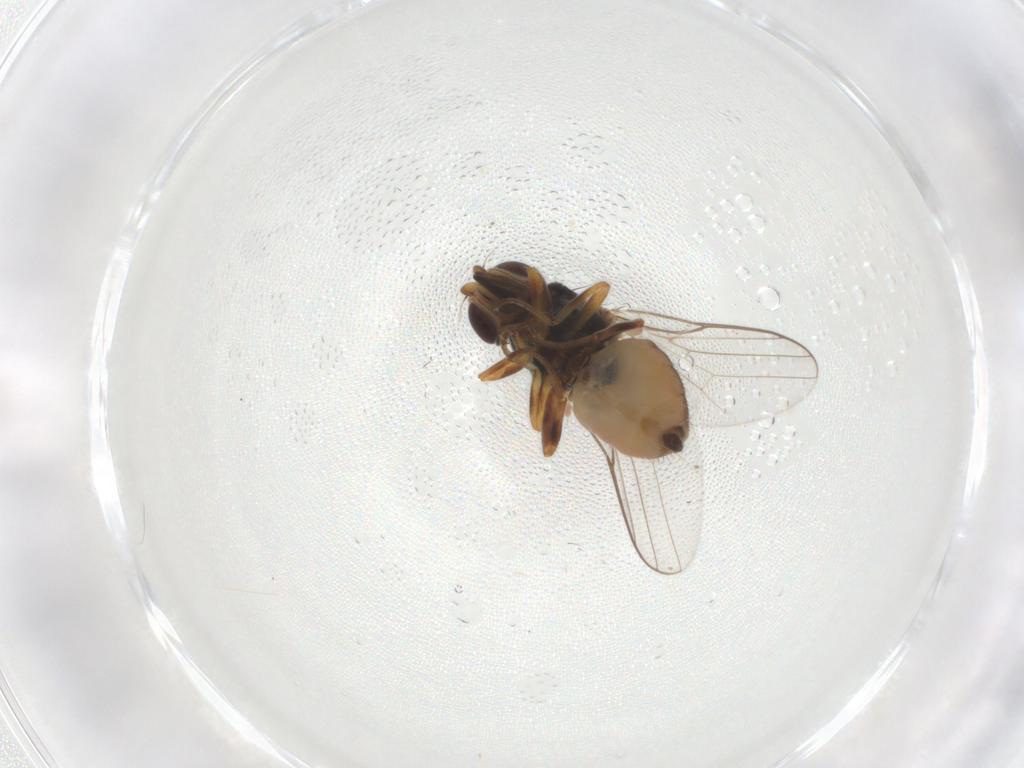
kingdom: Animalia
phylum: Arthropoda
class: Insecta
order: Diptera
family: Chloropidae
